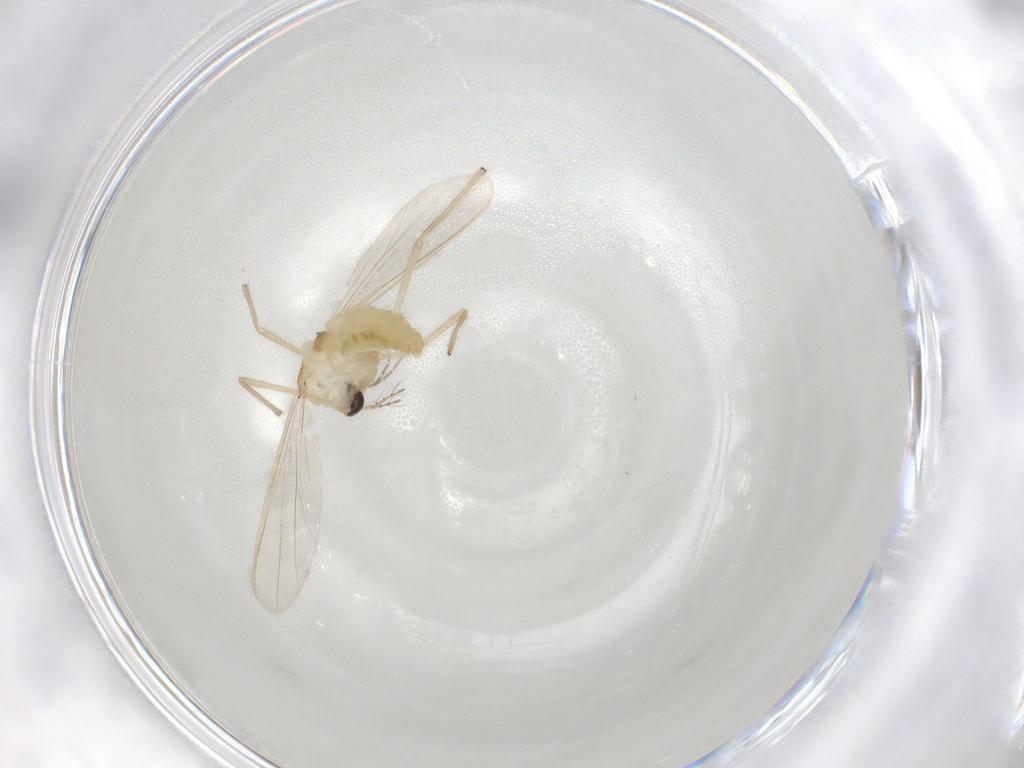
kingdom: Animalia
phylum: Arthropoda
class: Insecta
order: Diptera
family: Chironomidae
